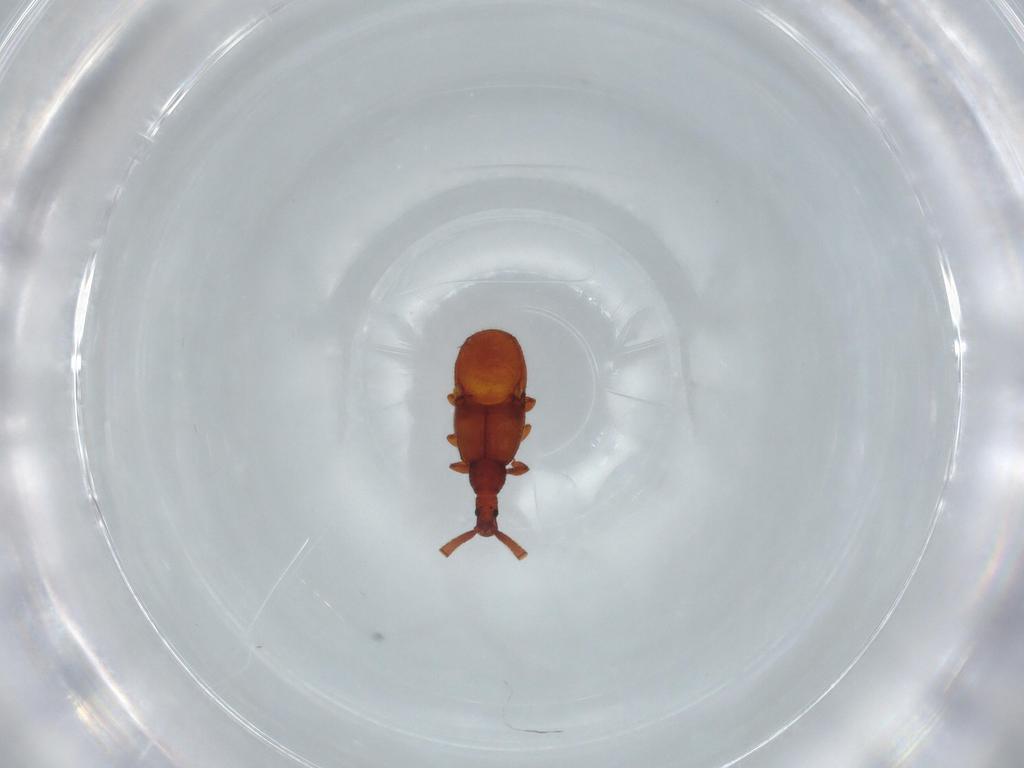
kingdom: Animalia
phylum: Arthropoda
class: Insecta
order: Coleoptera
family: Staphylinidae
